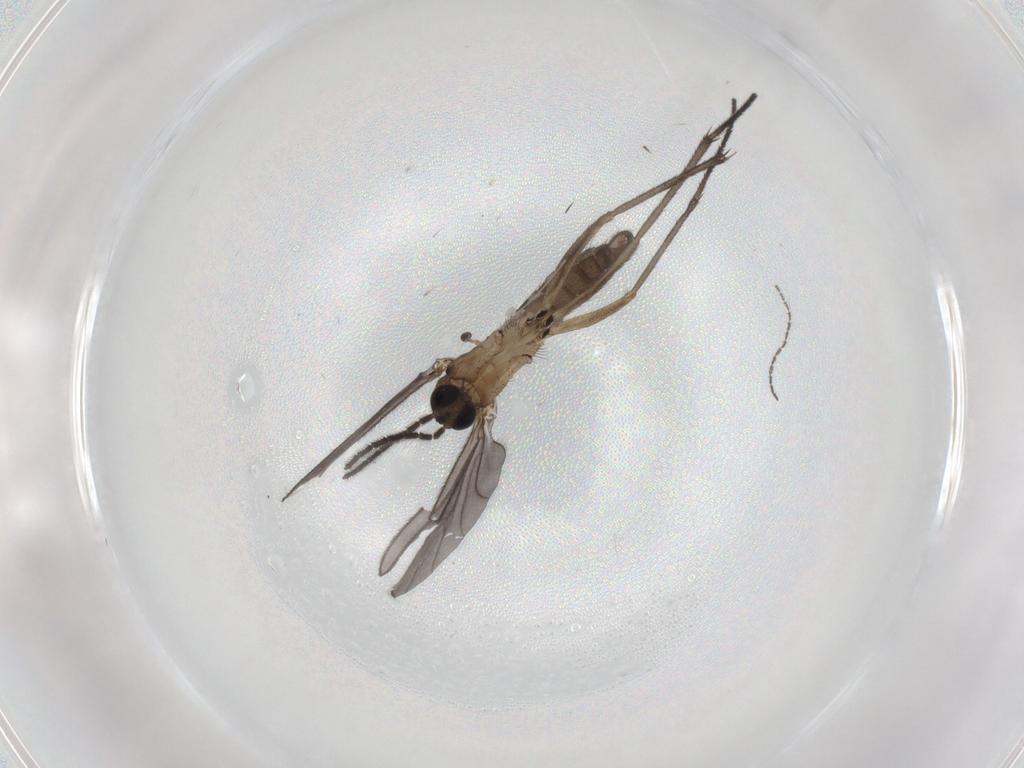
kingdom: Animalia
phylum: Arthropoda
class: Insecta
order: Diptera
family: Sciaridae
